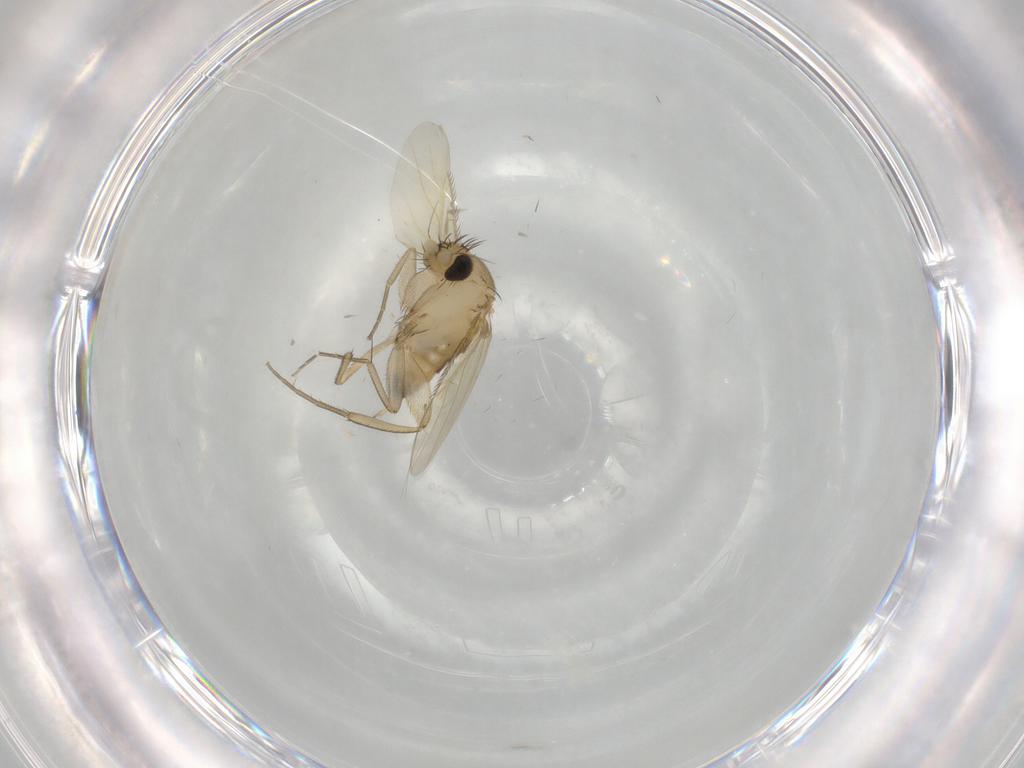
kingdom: Animalia
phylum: Arthropoda
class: Insecta
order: Diptera
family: Phoridae
